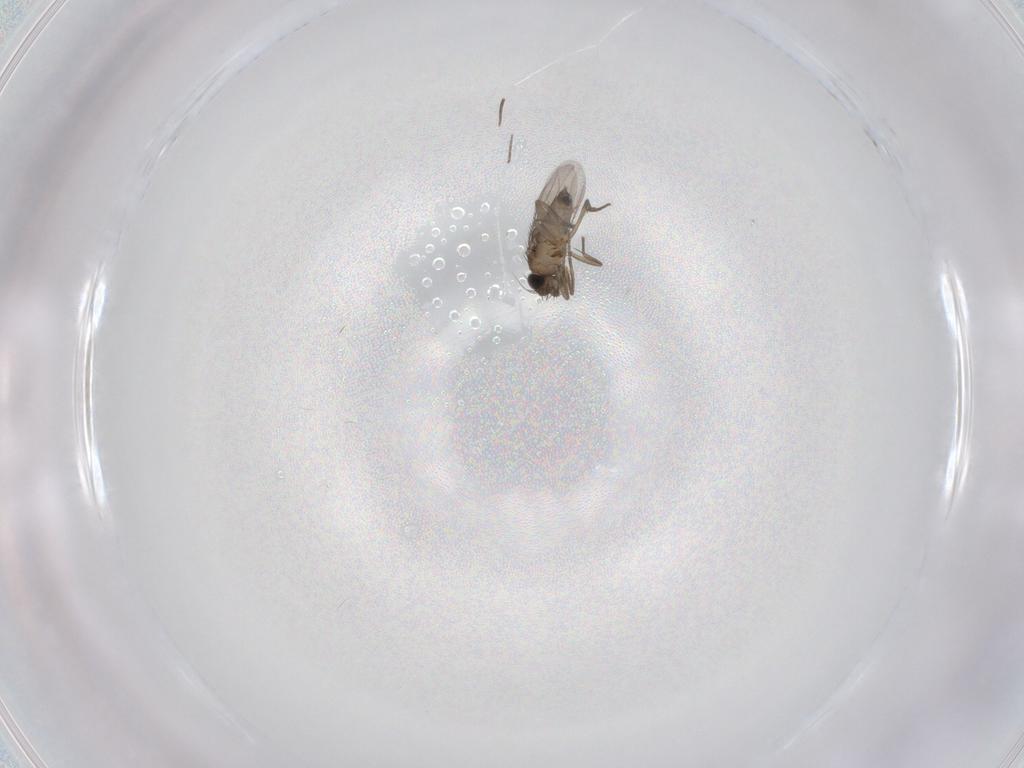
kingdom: Animalia
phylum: Arthropoda
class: Insecta
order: Diptera
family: Phoridae
